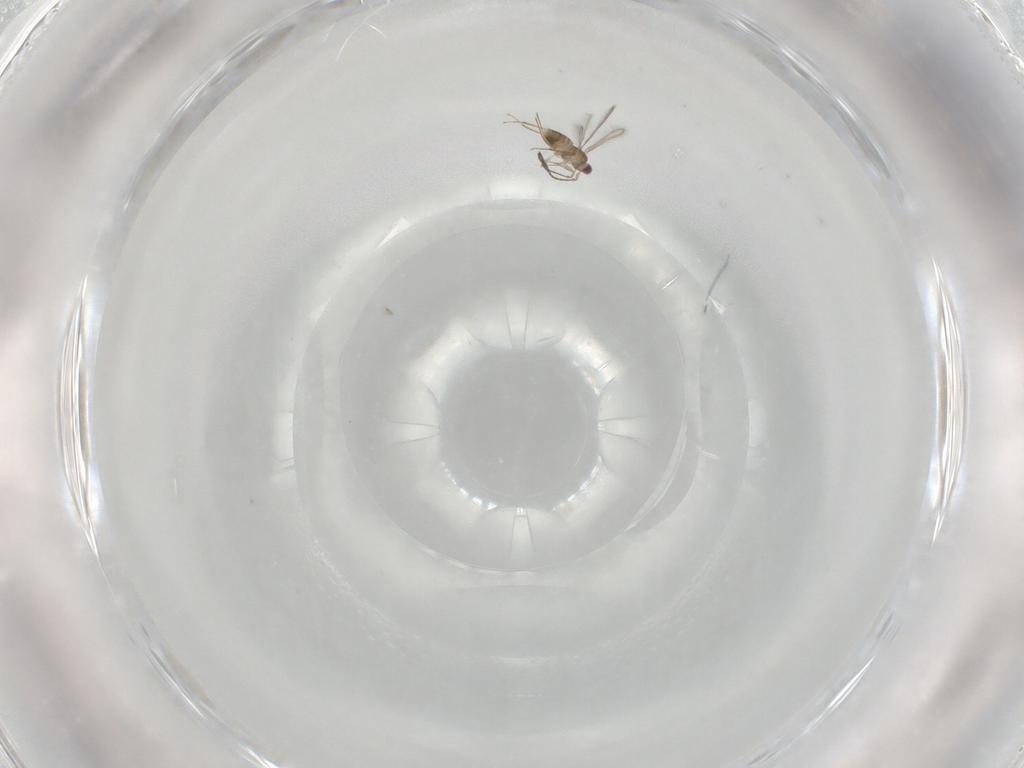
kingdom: Animalia
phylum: Arthropoda
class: Insecta
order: Hymenoptera
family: Mymaridae
